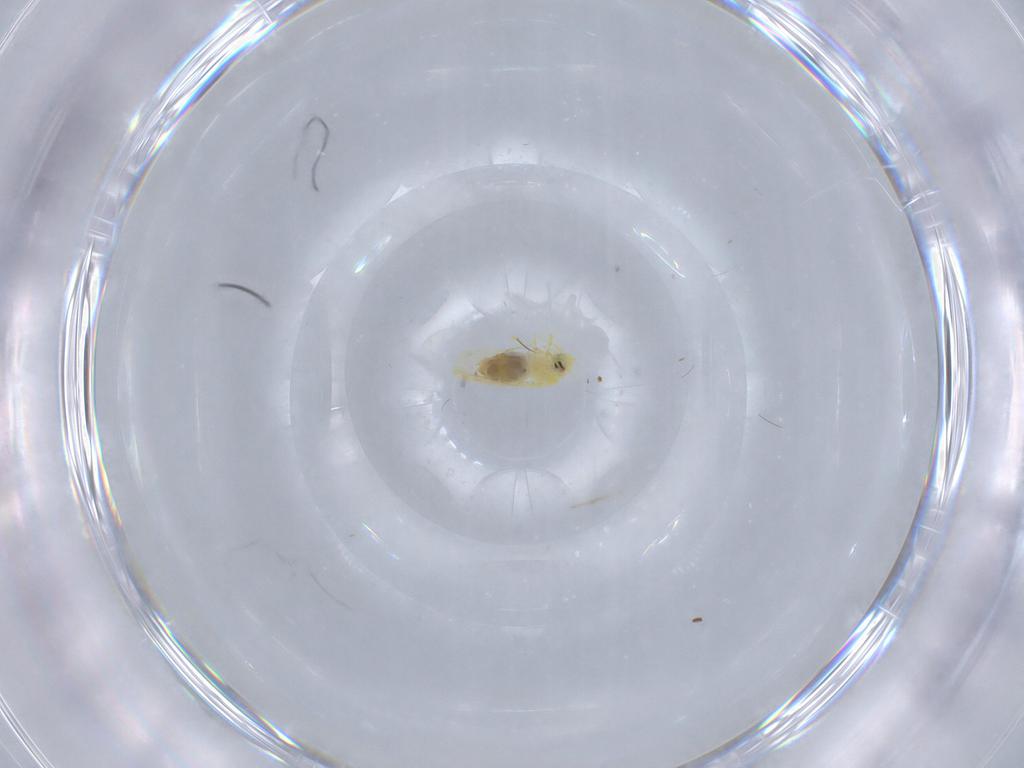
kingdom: Animalia
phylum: Arthropoda
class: Insecta
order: Hemiptera
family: Aleyrodidae
